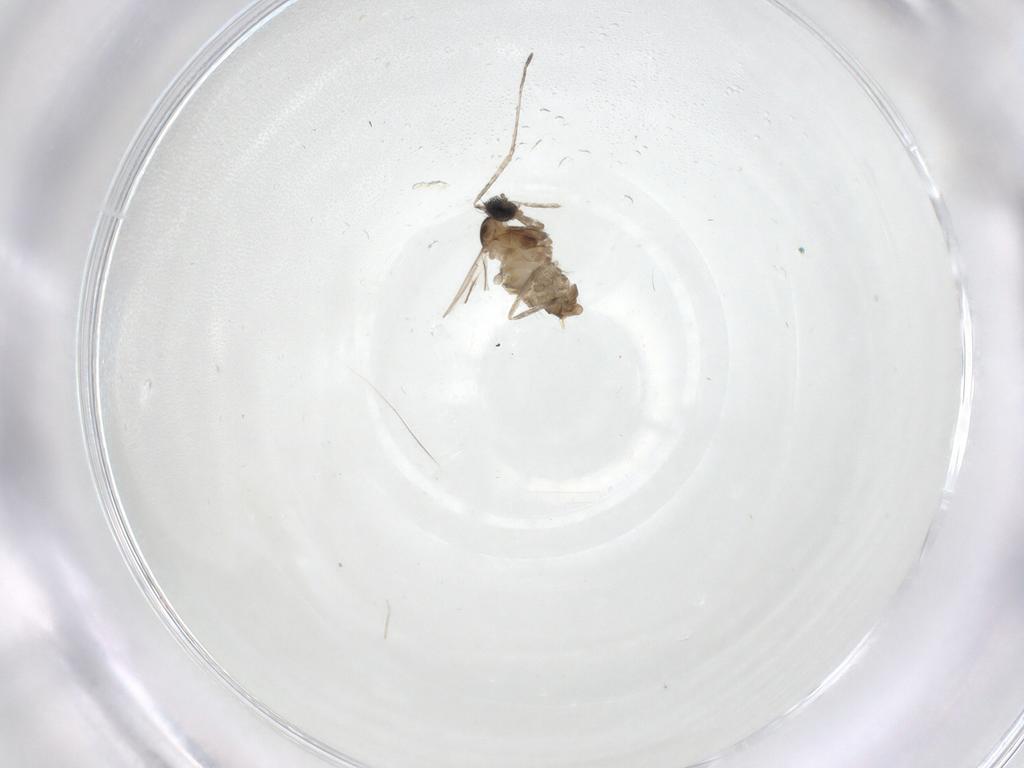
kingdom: Animalia
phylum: Arthropoda
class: Insecta
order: Diptera
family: Cecidomyiidae
